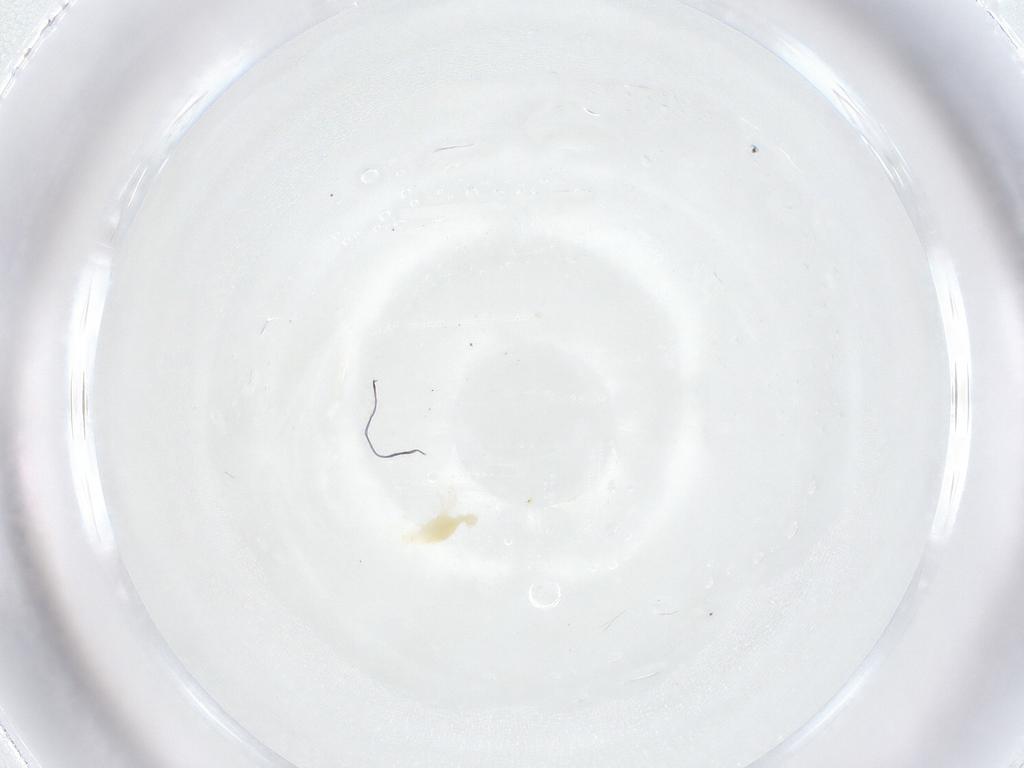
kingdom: Animalia
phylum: Arthropoda
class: Arachnida
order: Trombidiformes
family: Stigmaeidae
